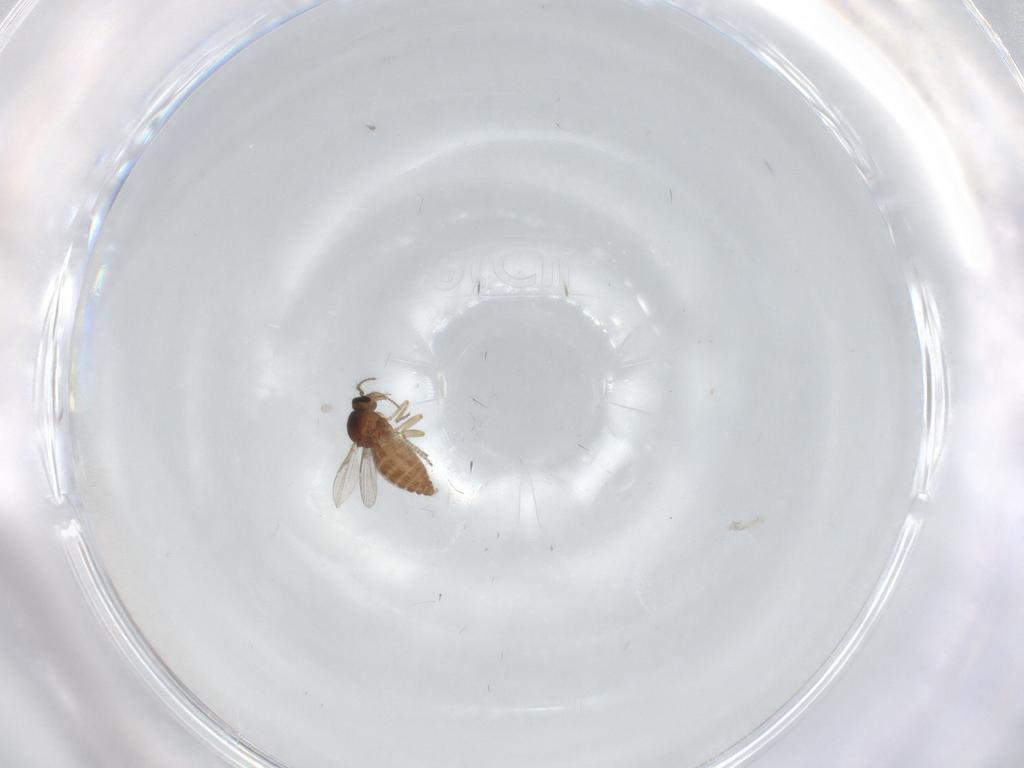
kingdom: Animalia
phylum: Arthropoda
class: Insecta
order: Diptera
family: Ceratopogonidae
